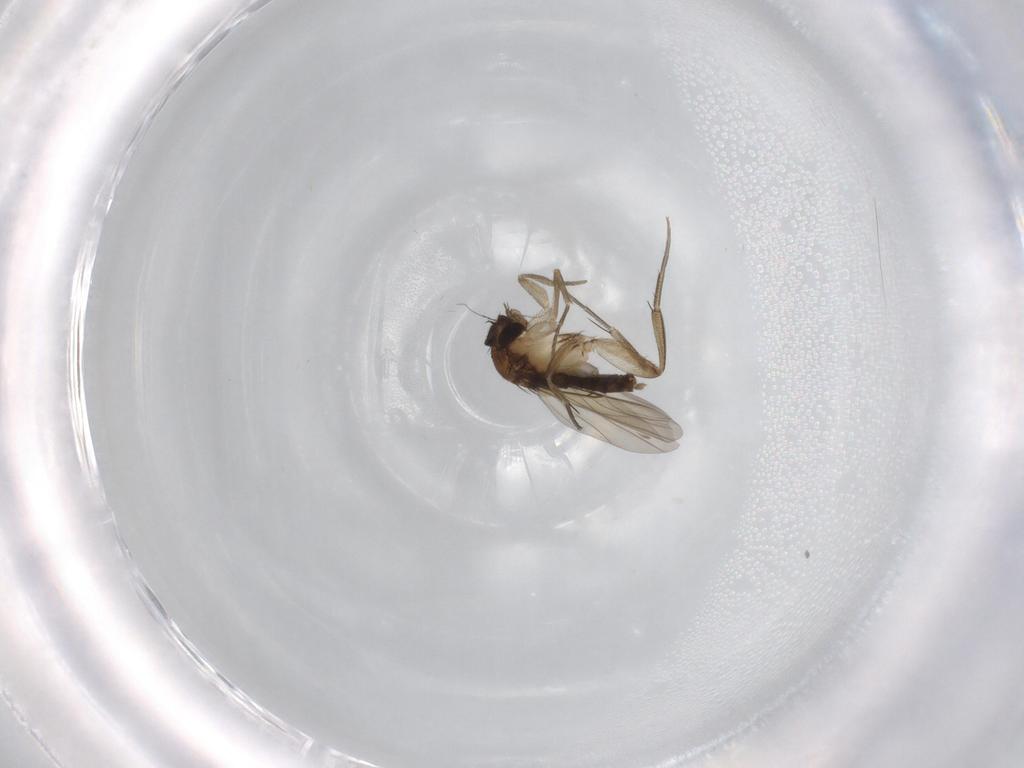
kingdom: Animalia
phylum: Arthropoda
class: Insecta
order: Diptera
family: Phoridae
